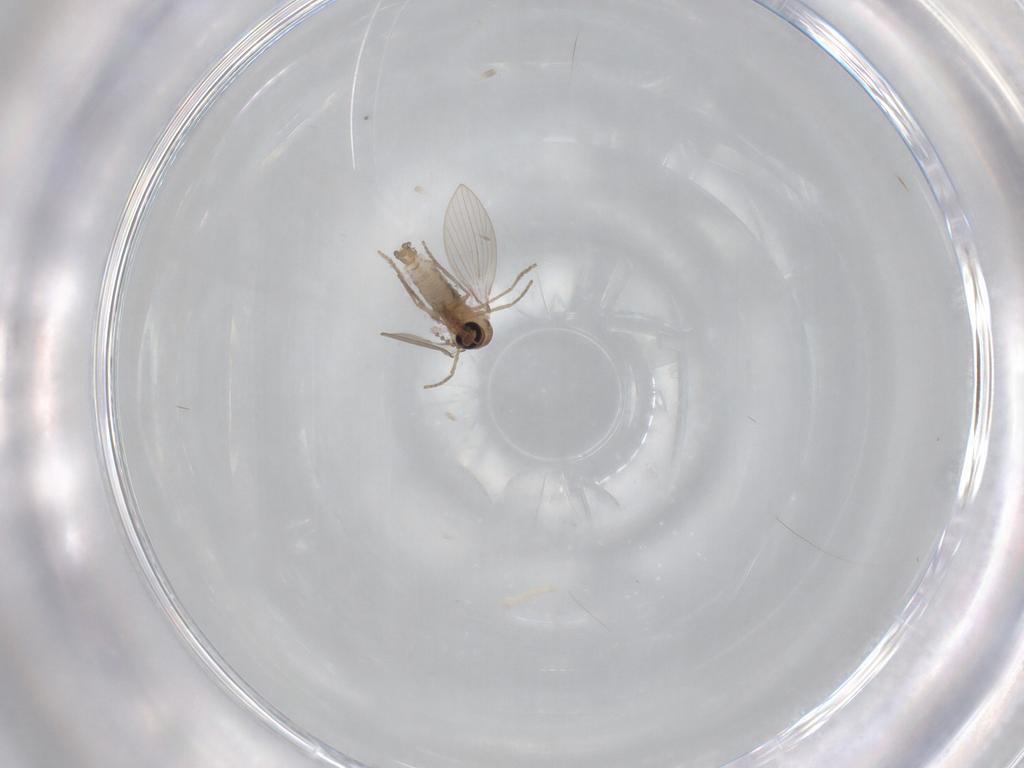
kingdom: Animalia
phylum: Arthropoda
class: Insecta
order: Diptera
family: Psychodidae
